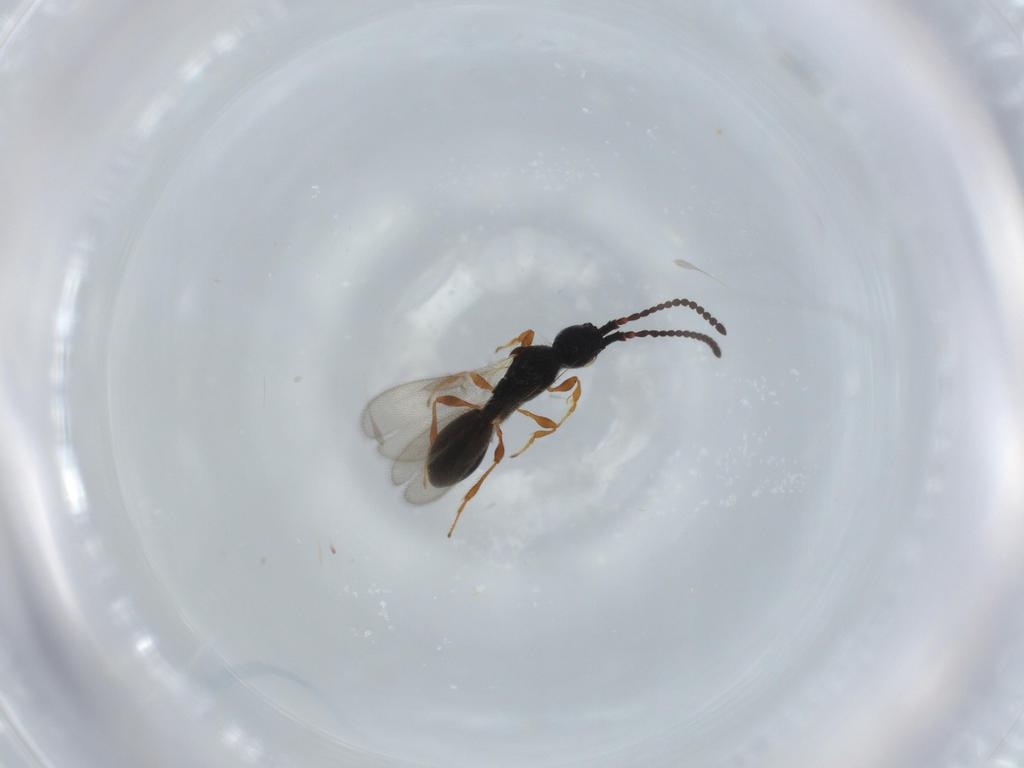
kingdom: Animalia
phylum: Arthropoda
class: Insecta
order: Hymenoptera
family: Diapriidae
